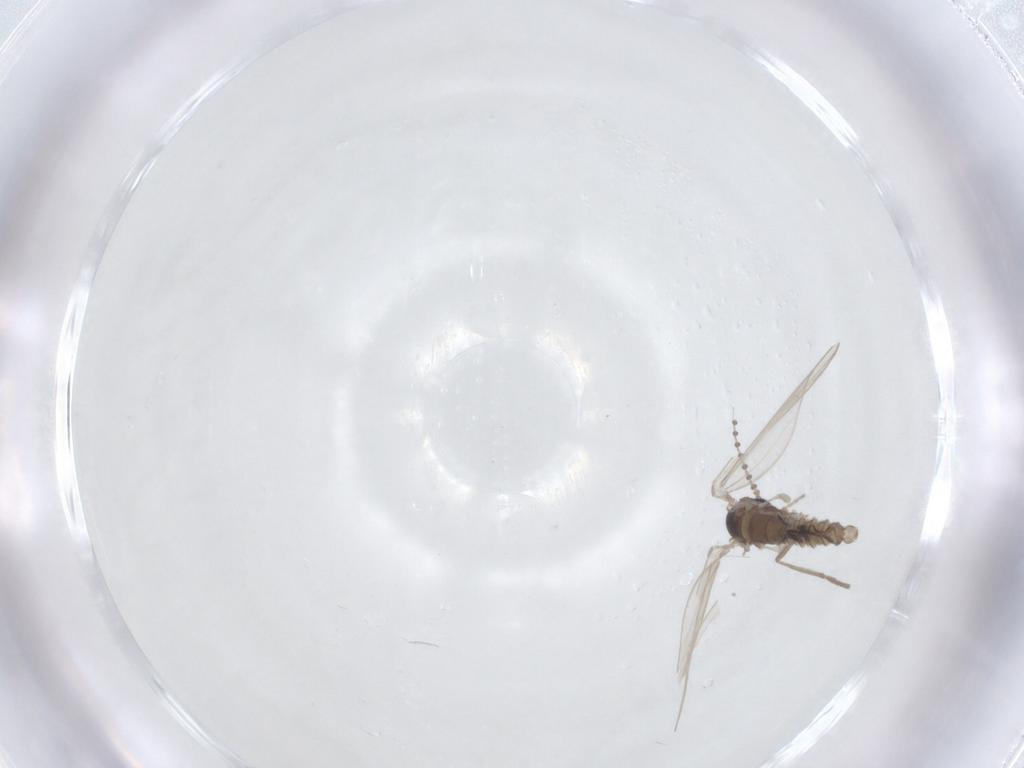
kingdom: Animalia
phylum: Arthropoda
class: Insecta
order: Diptera
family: Psychodidae
